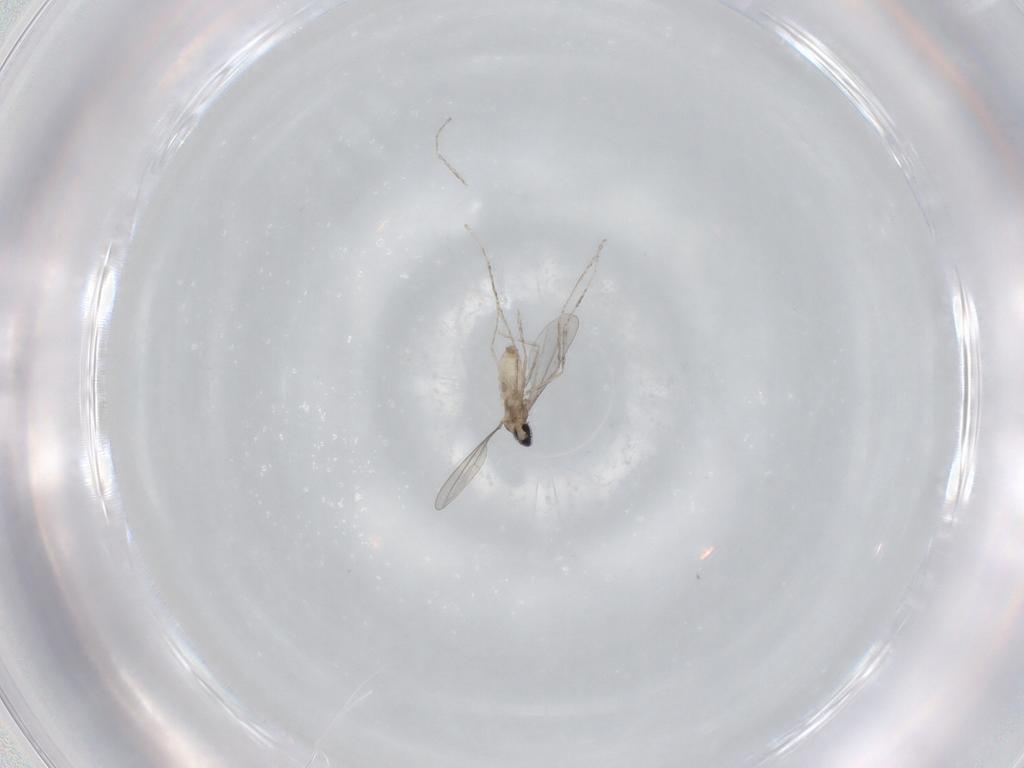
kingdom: Animalia
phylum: Arthropoda
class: Insecta
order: Diptera
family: Cecidomyiidae
